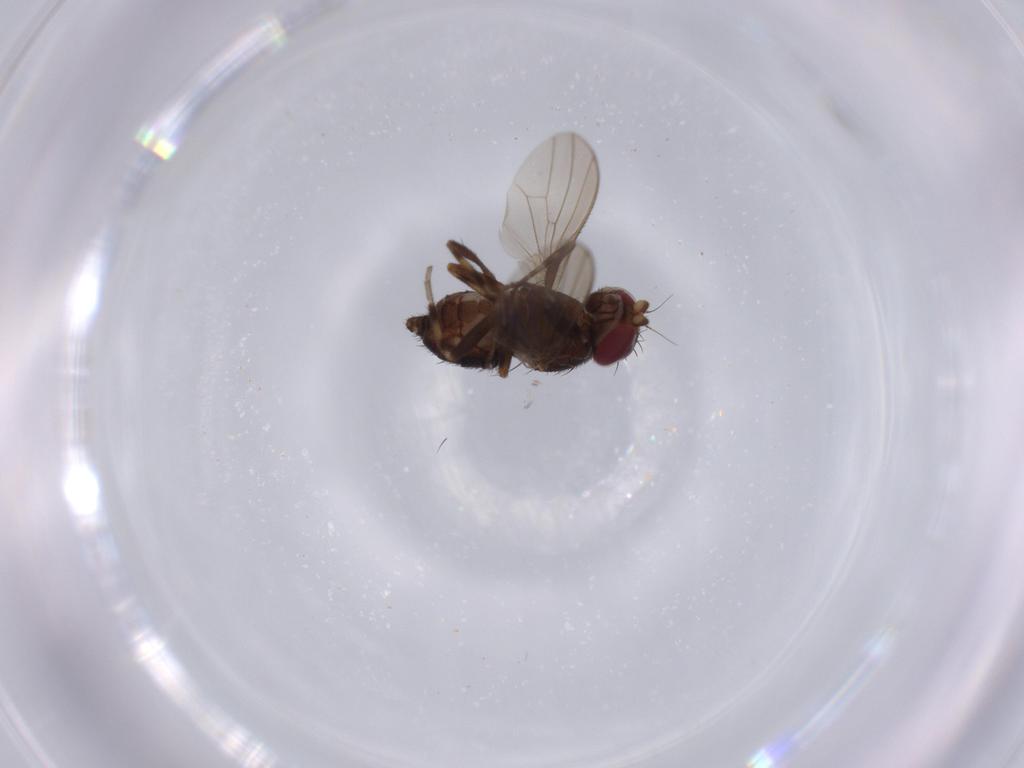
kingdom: Animalia
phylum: Arthropoda
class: Insecta
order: Diptera
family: Heleomyzidae
